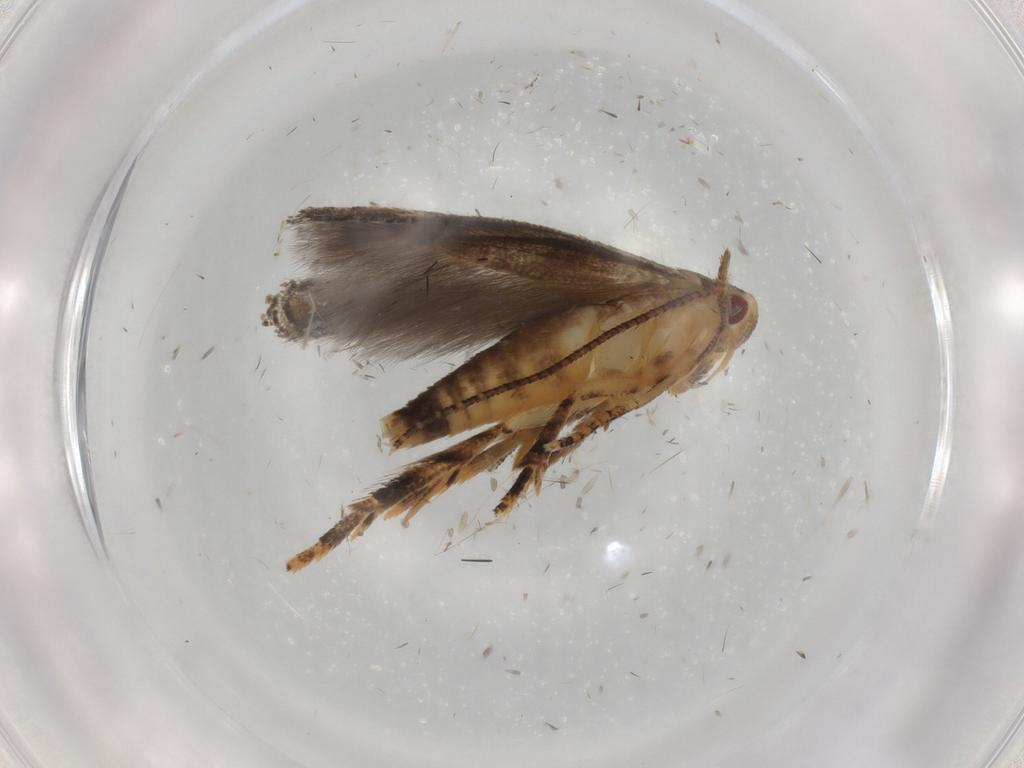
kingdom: Animalia
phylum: Arthropoda
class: Insecta
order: Lepidoptera
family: Tineidae
